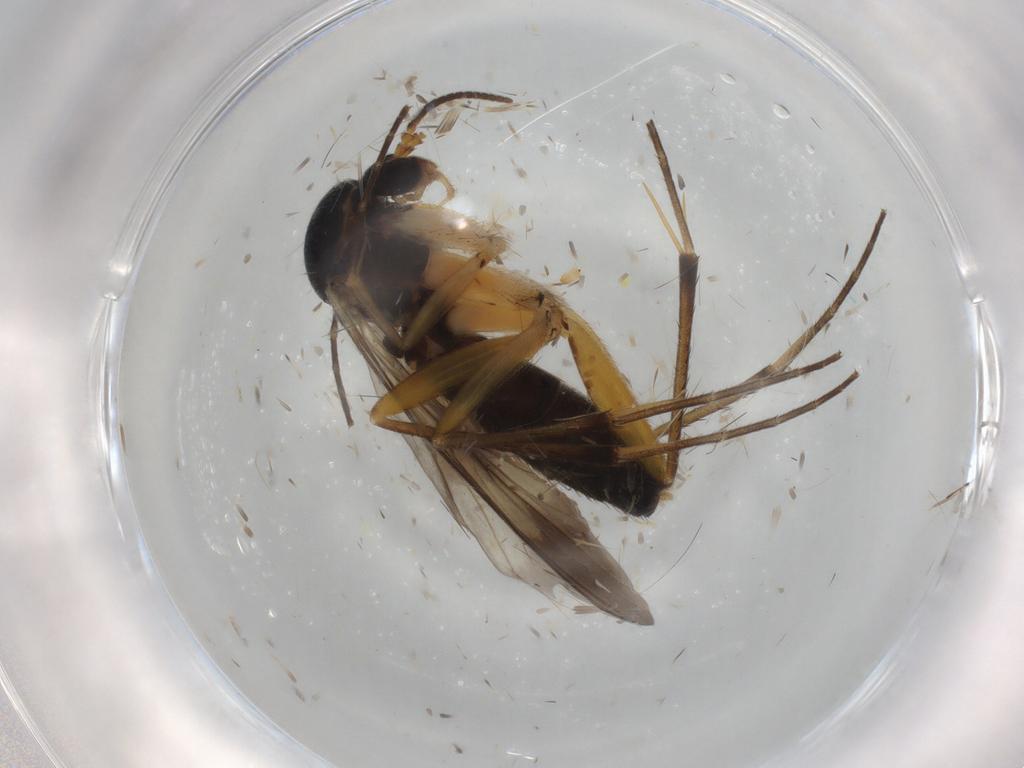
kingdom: Animalia
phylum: Arthropoda
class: Insecta
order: Diptera
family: Mycetophilidae
